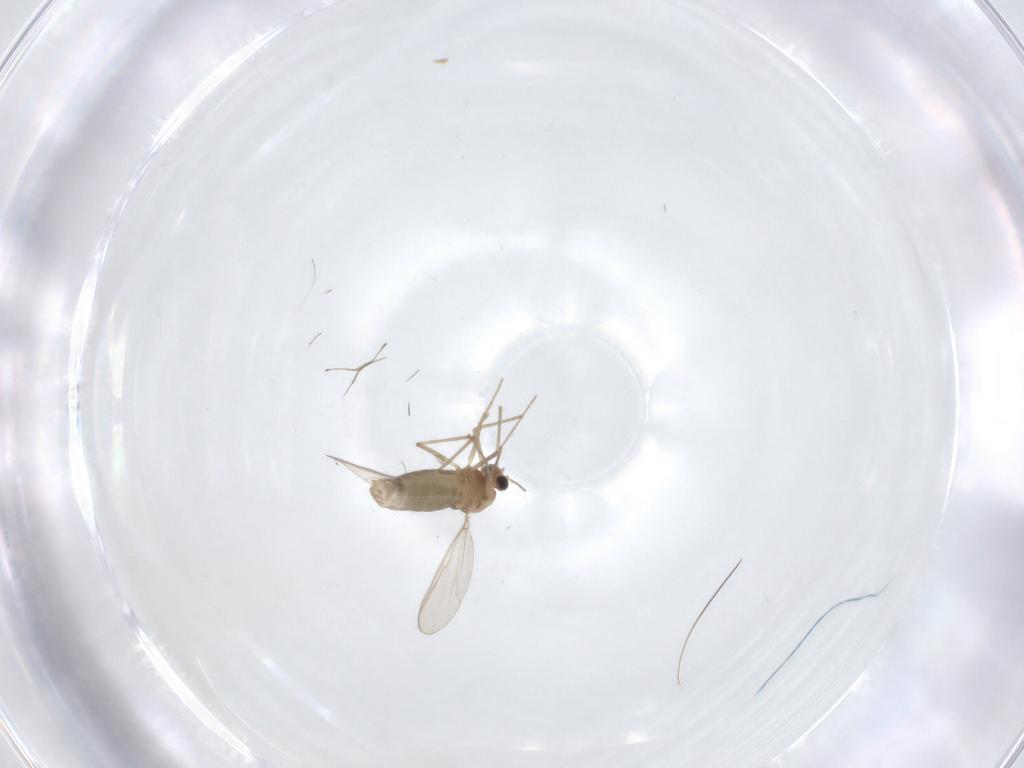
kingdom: Animalia
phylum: Arthropoda
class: Insecta
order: Diptera
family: Chironomidae
